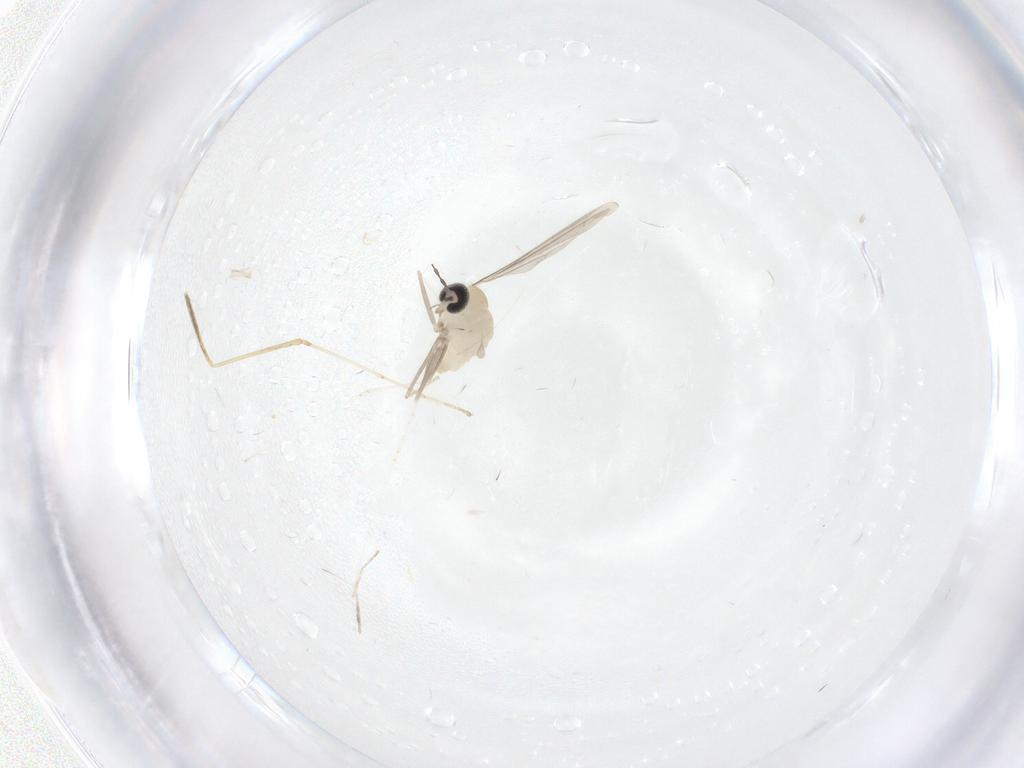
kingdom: Animalia
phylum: Arthropoda
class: Insecta
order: Diptera
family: Cecidomyiidae
